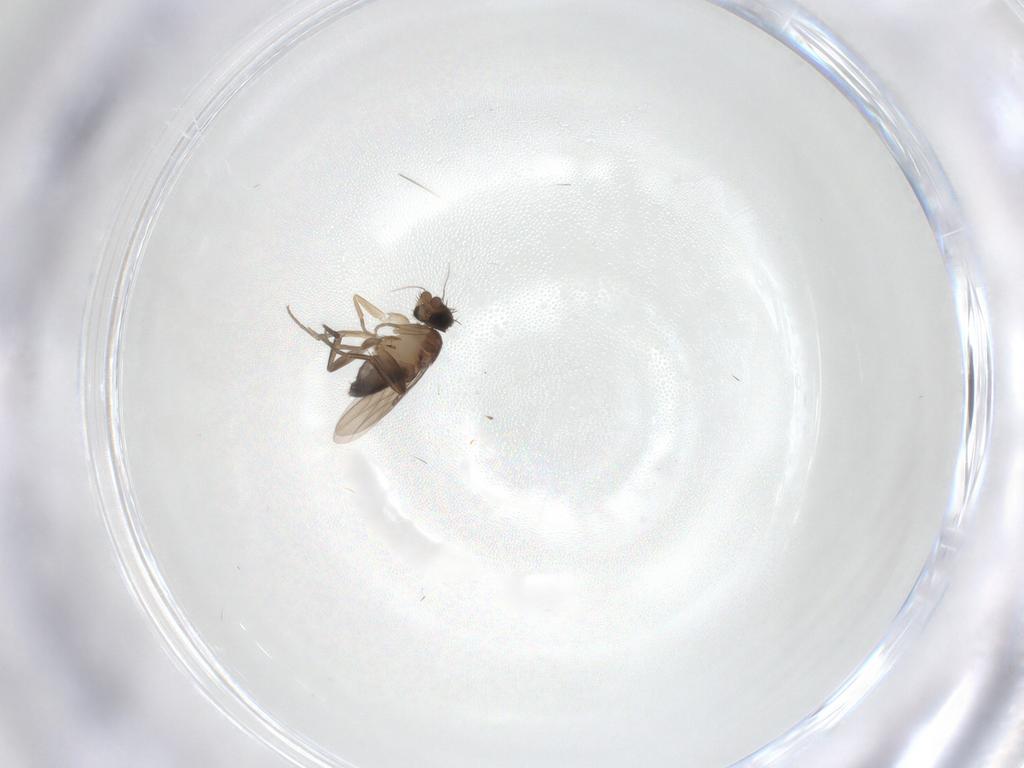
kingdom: Animalia
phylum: Arthropoda
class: Insecta
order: Diptera
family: Phoridae
